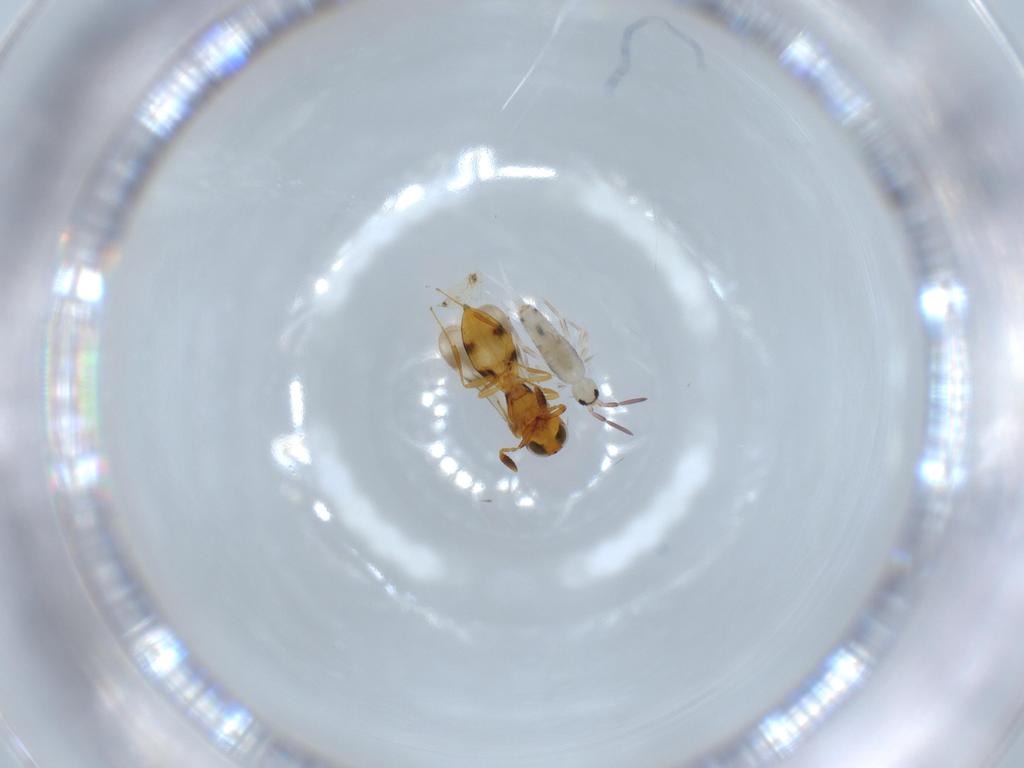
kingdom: Animalia
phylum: Arthropoda
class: Insecta
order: Hymenoptera
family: Scelionidae
